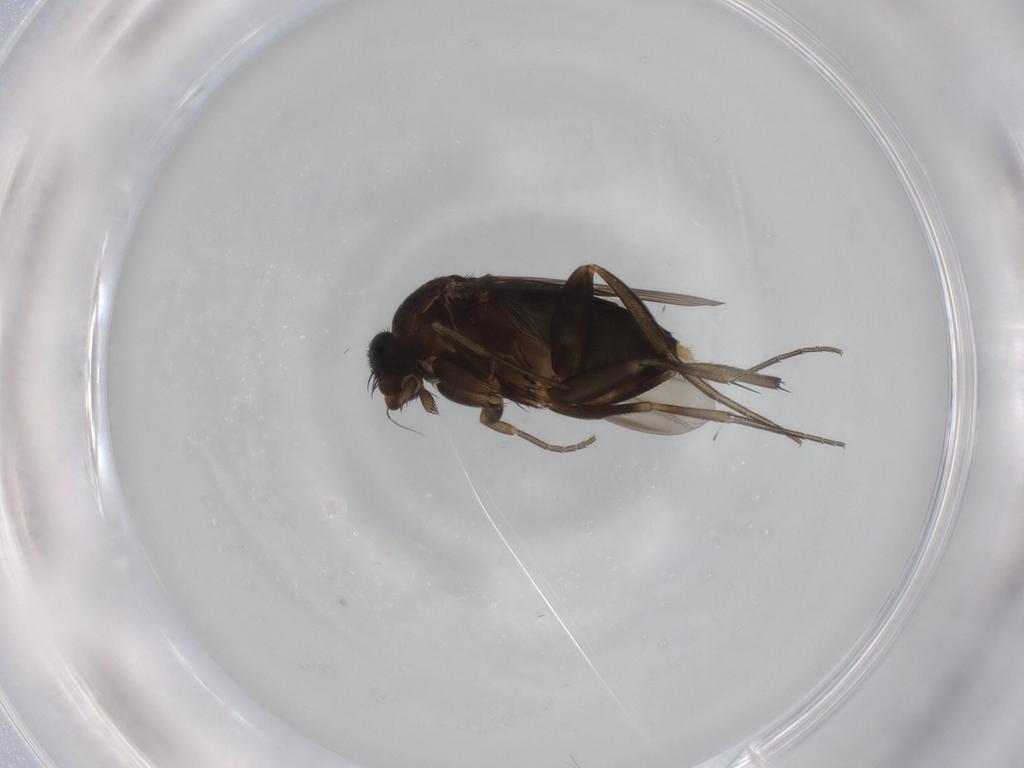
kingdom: Animalia
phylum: Arthropoda
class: Insecta
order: Diptera
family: Phoridae
